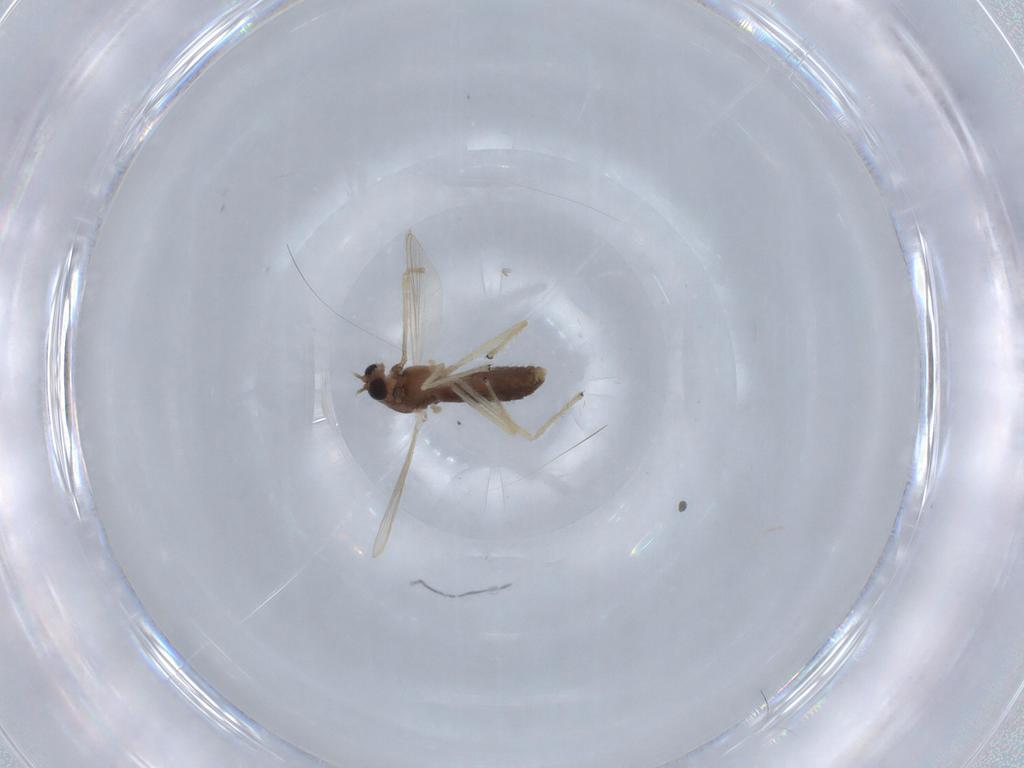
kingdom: Animalia
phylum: Arthropoda
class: Insecta
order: Diptera
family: Chironomidae
